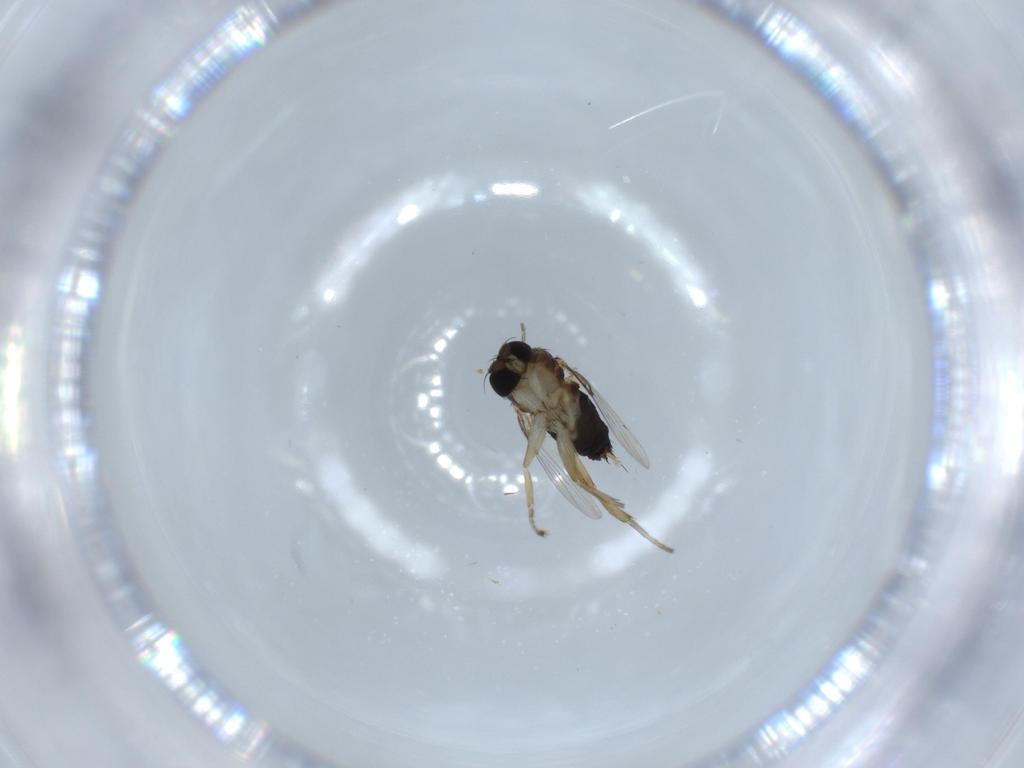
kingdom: Animalia
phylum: Arthropoda
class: Insecta
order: Diptera
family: Phoridae
